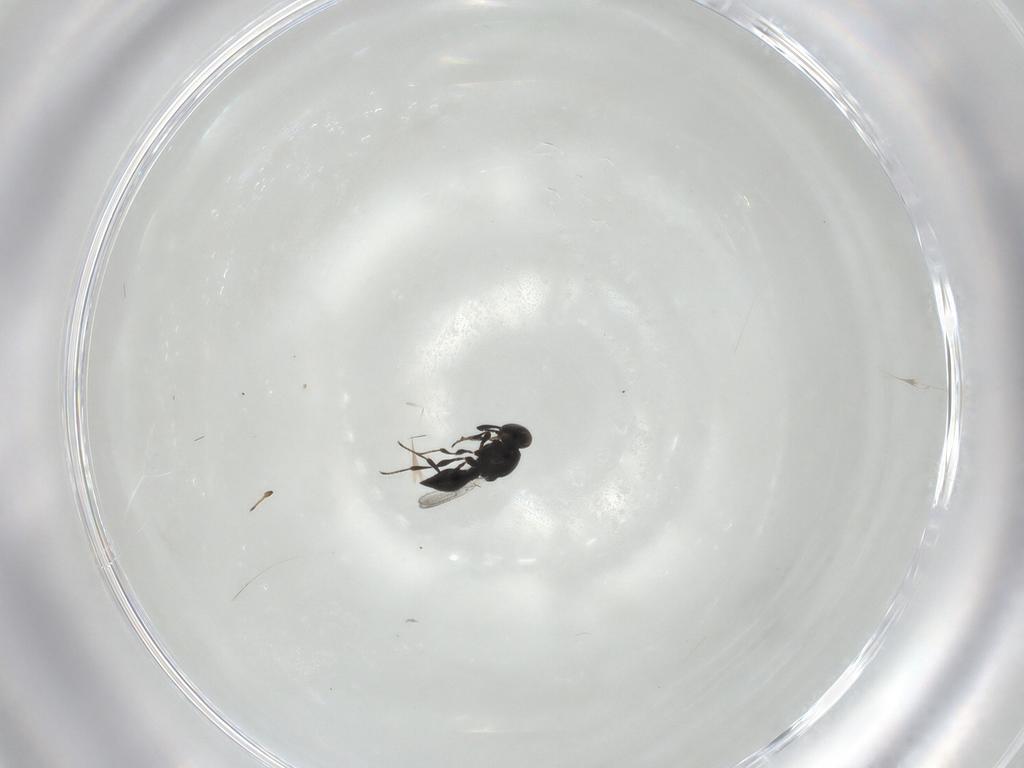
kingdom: Animalia
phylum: Arthropoda
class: Insecta
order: Hymenoptera
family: Platygastridae
